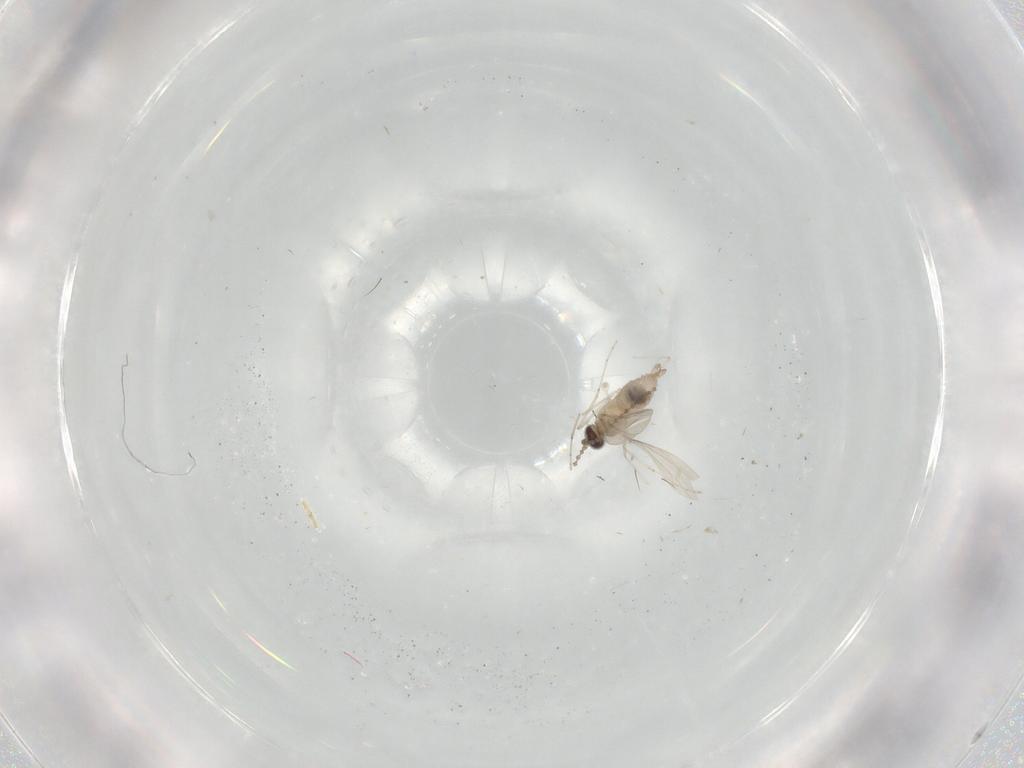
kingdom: Animalia
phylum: Arthropoda
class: Insecta
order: Diptera
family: Cecidomyiidae
